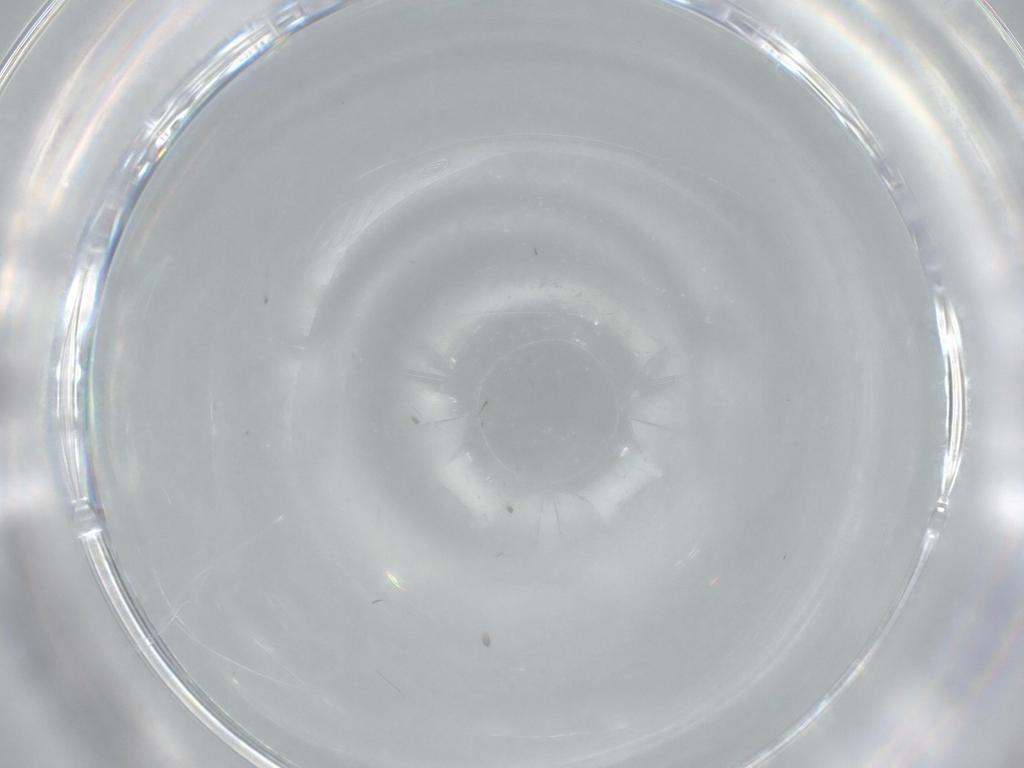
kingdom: Animalia
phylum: Arthropoda
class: Insecta
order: Diptera
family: Cecidomyiidae
